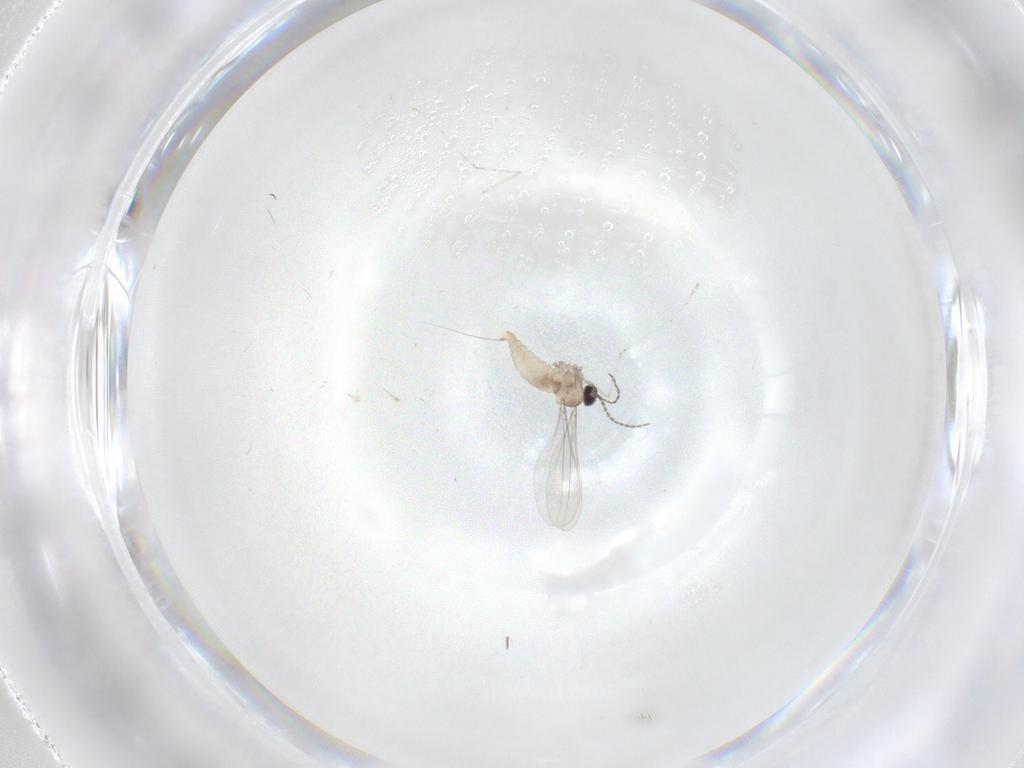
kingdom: Animalia
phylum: Arthropoda
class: Insecta
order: Diptera
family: Cecidomyiidae
